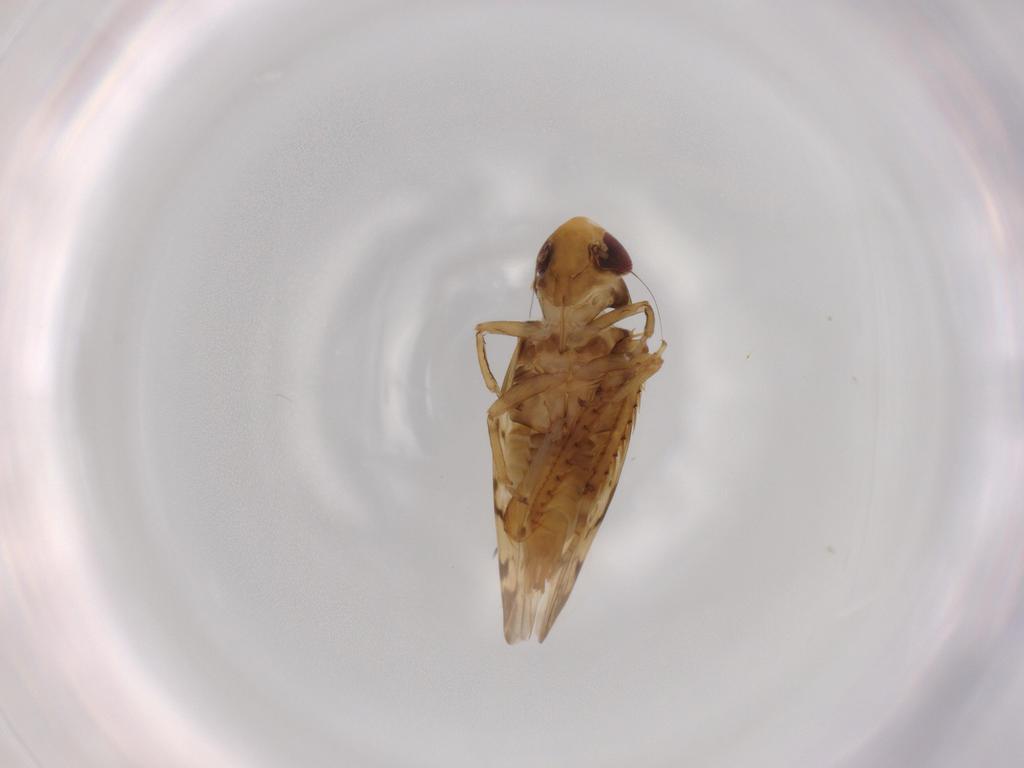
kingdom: Animalia
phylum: Arthropoda
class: Insecta
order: Hemiptera
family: Cicadellidae
